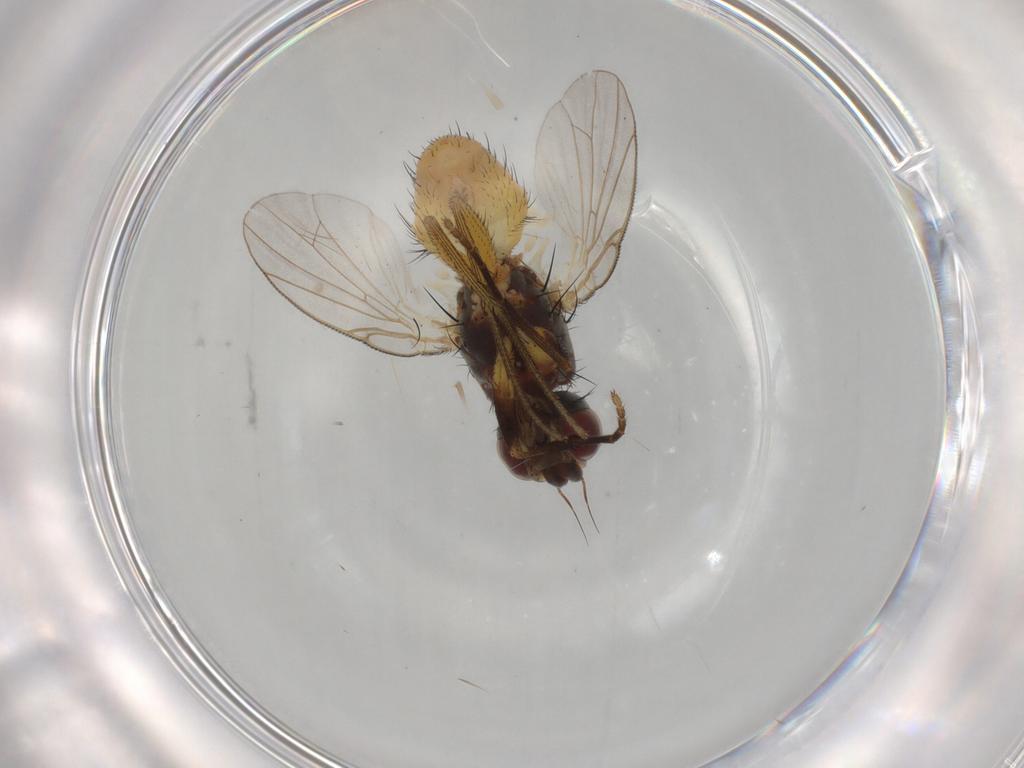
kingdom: Animalia
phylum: Arthropoda
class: Insecta
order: Diptera
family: Muscidae
